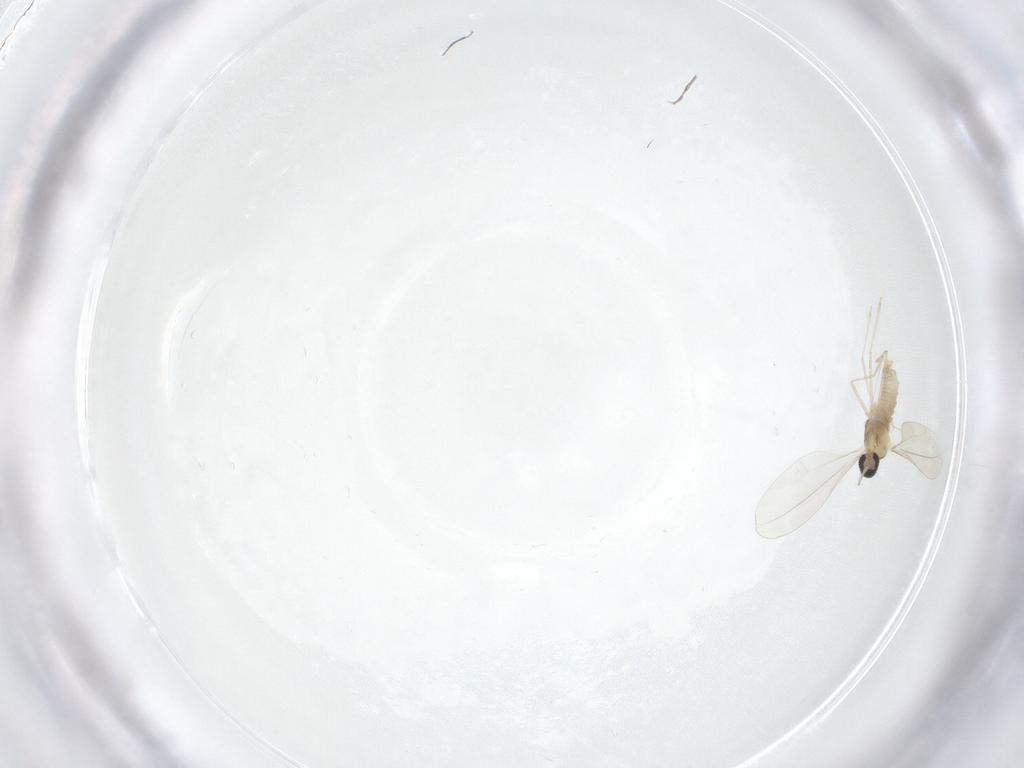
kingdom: Animalia
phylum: Arthropoda
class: Insecta
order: Diptera
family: Cecidomyiidae
